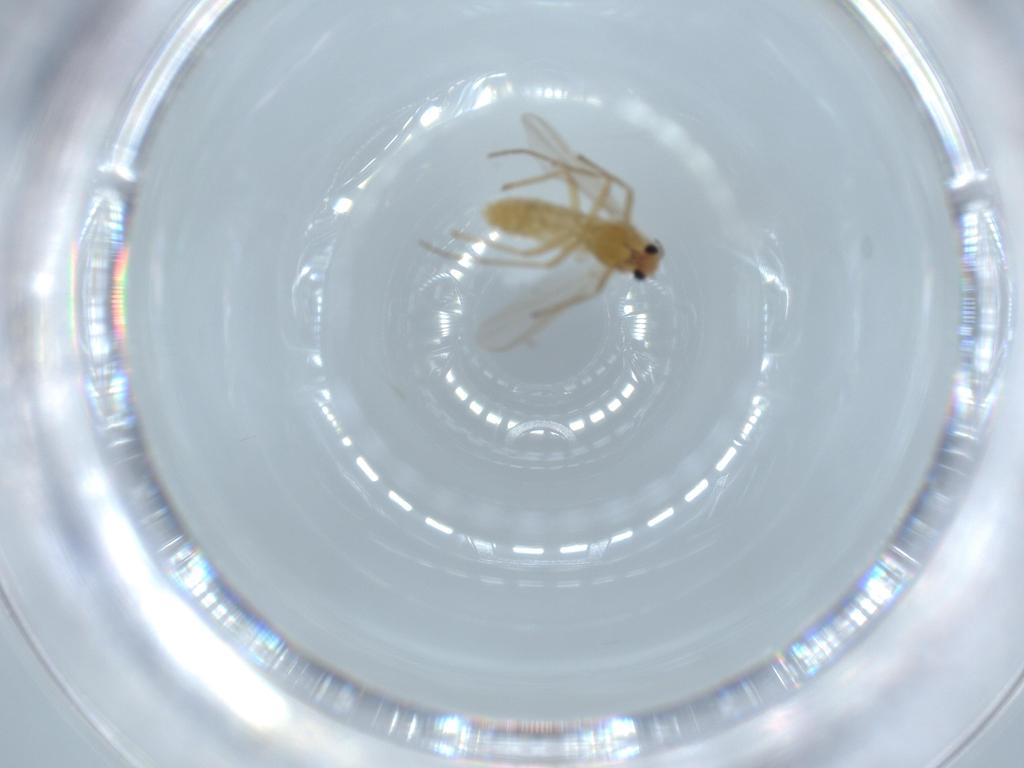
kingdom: Animalia
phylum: Arthropoda
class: Insecta
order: Diptera
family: Chironomidae
